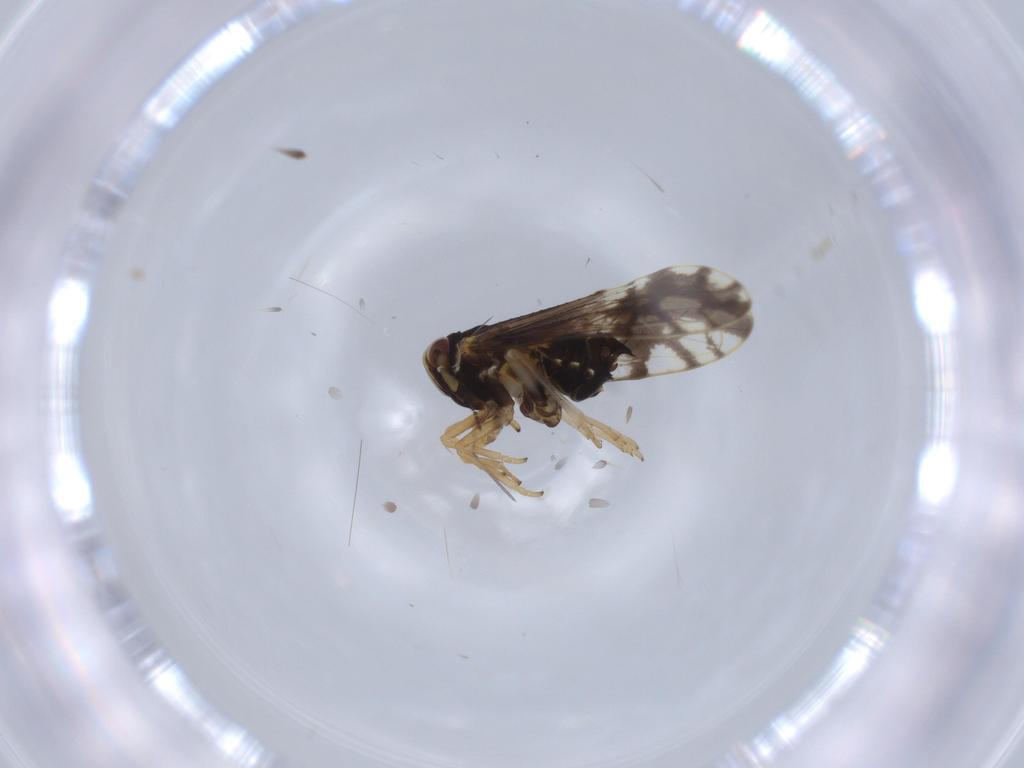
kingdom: Animalia
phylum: Arthropoda
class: Insecta
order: Hemiptera
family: Delphacidae
